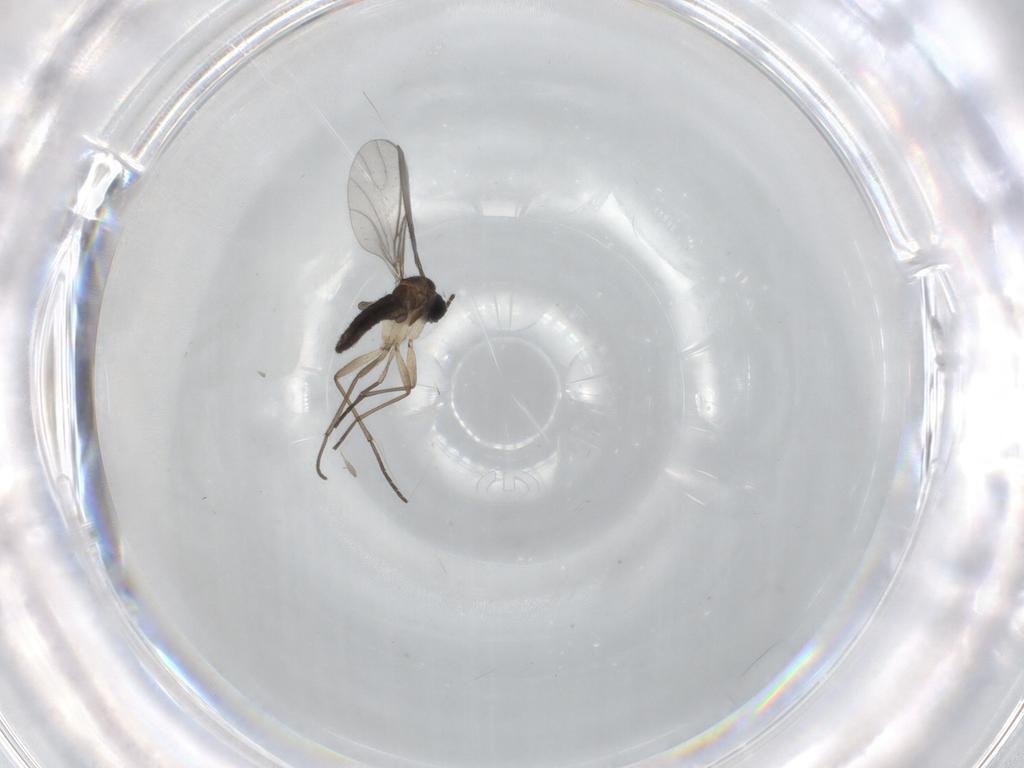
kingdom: Animalia
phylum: Arthropoda
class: Insecta
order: Diptera
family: Sciaridae
